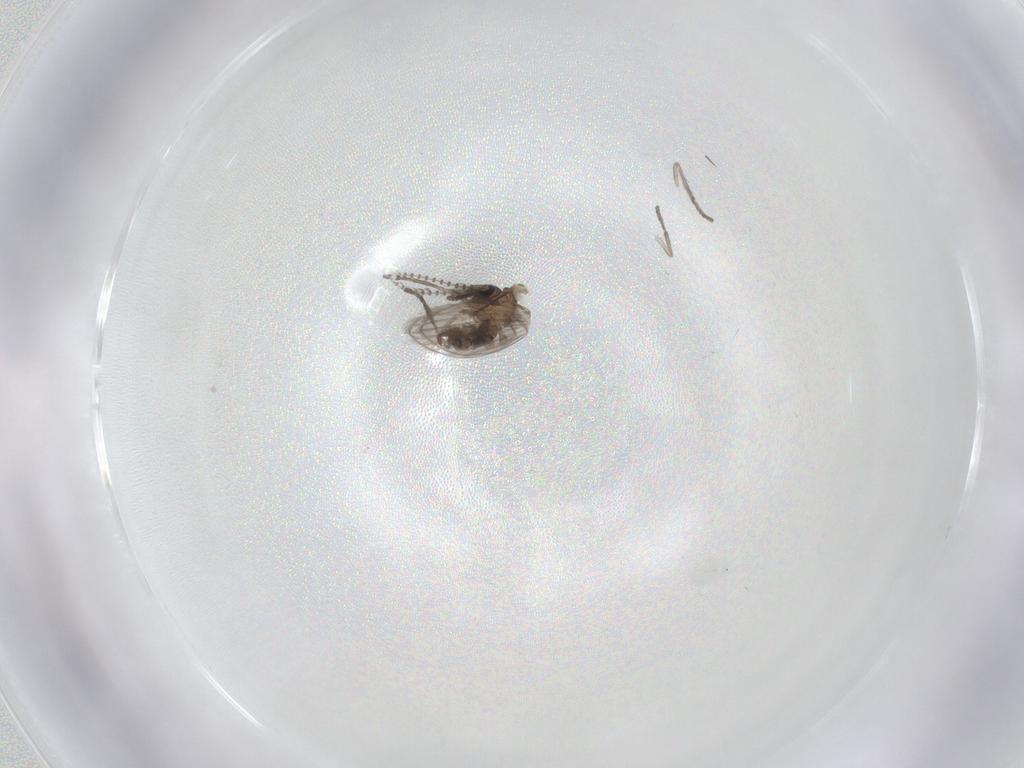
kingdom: Animalia
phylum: Arthropoda
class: Insecta
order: Diptera
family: Psychodidae
